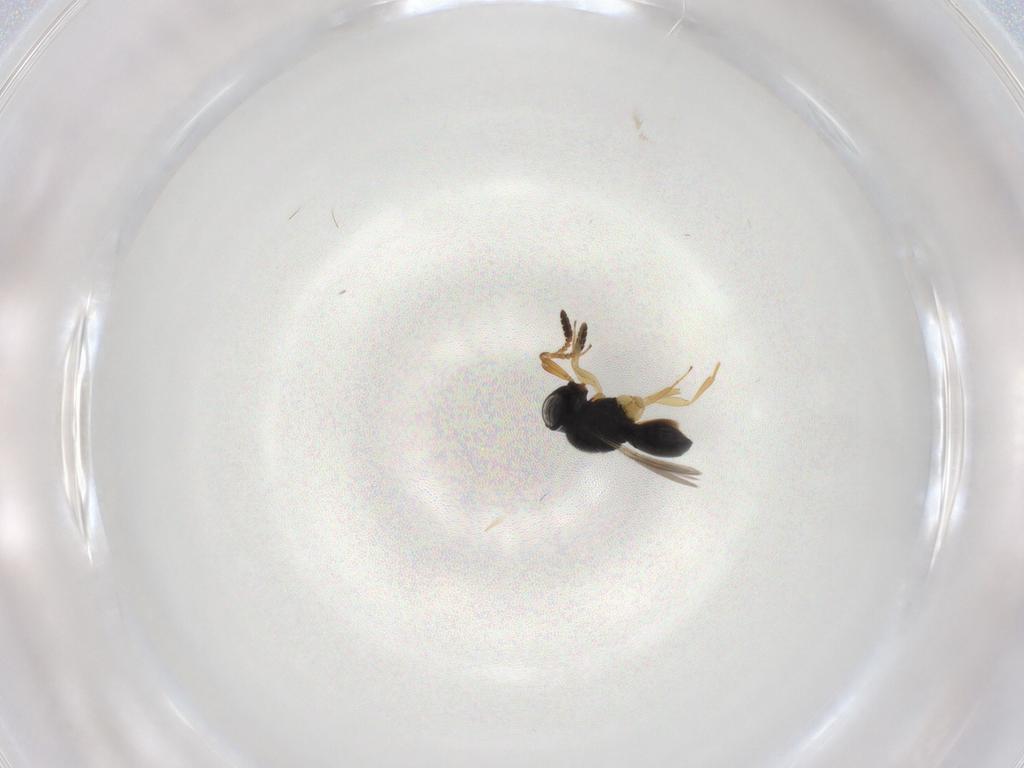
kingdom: Animalia
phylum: Arthropoda
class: Insecta
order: Hymenoptera
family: Scelionidae
